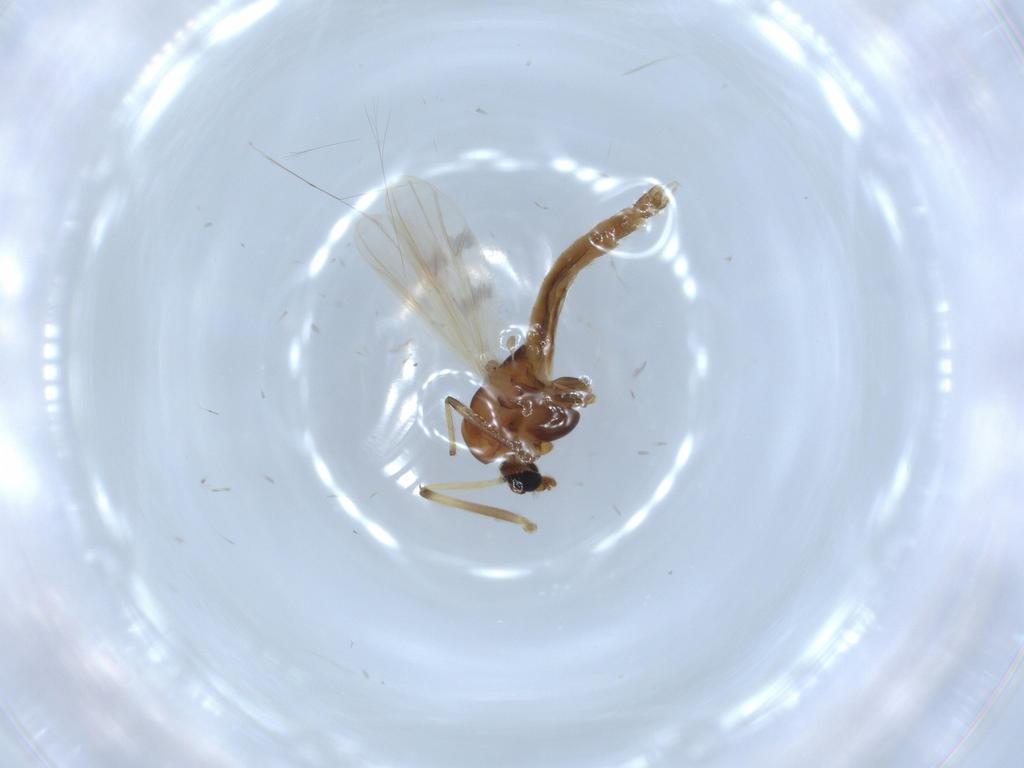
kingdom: Animalia
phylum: Arthropoda
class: Insecta
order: Diptera
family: Chironomidae
